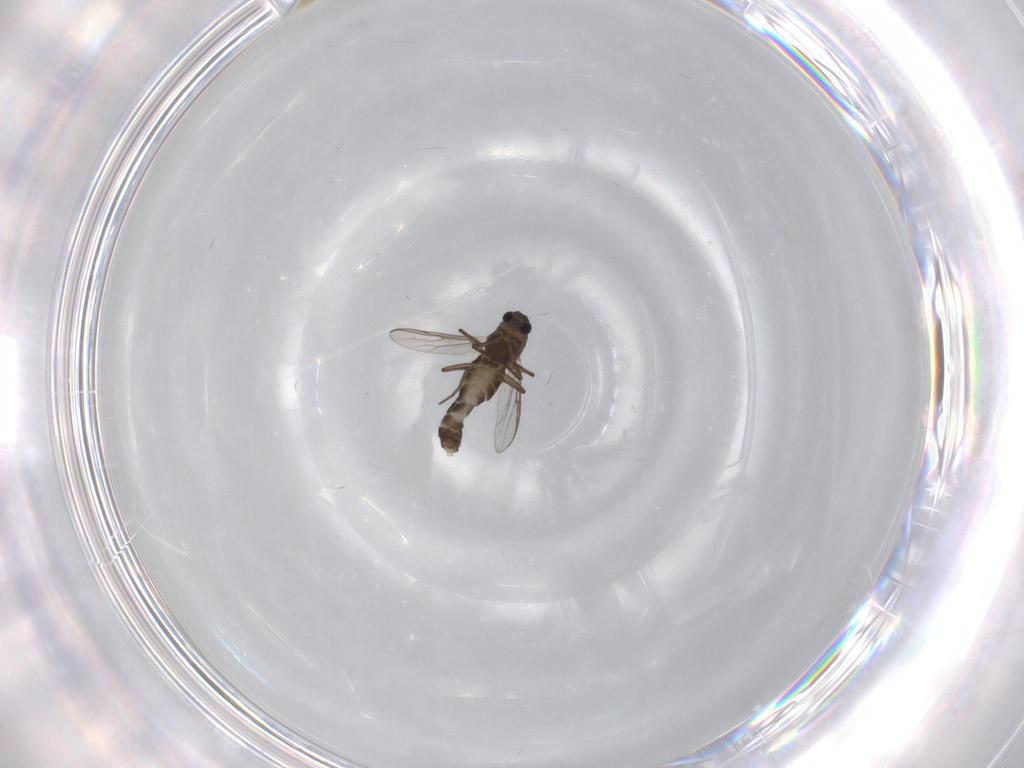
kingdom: Animalia
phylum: Arthropoda
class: Insecta
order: Diptera
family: Chironomidae
